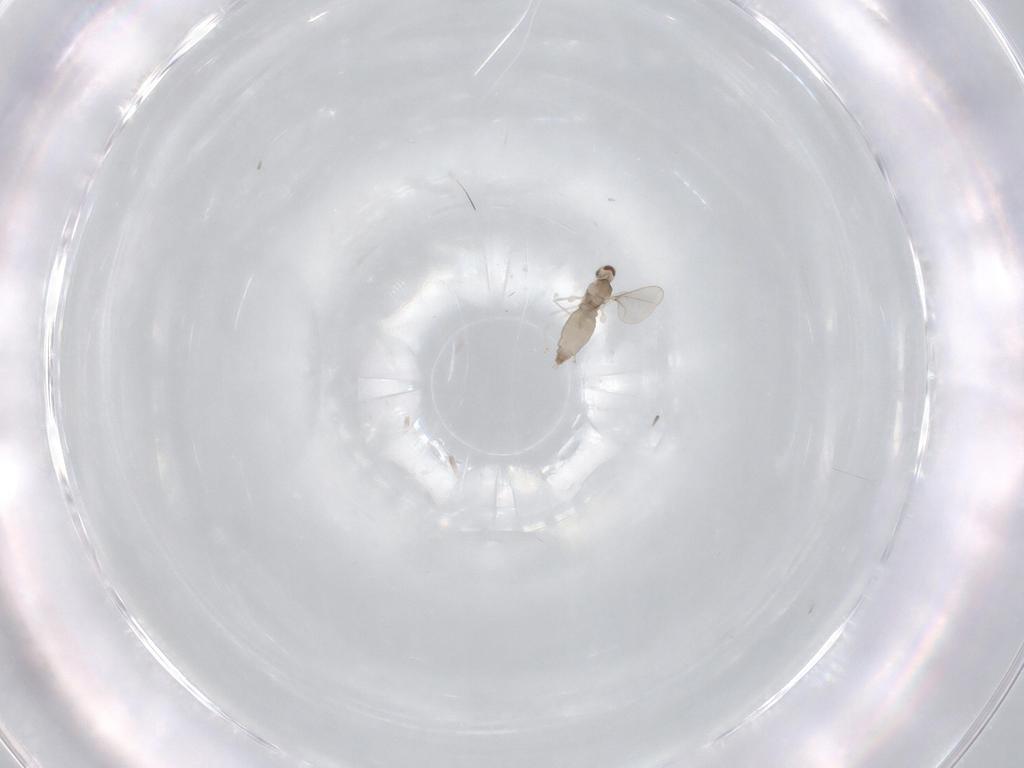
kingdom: Animalia
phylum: Arthropoda
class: Insecta
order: Diptera
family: Cecidomyiidae
